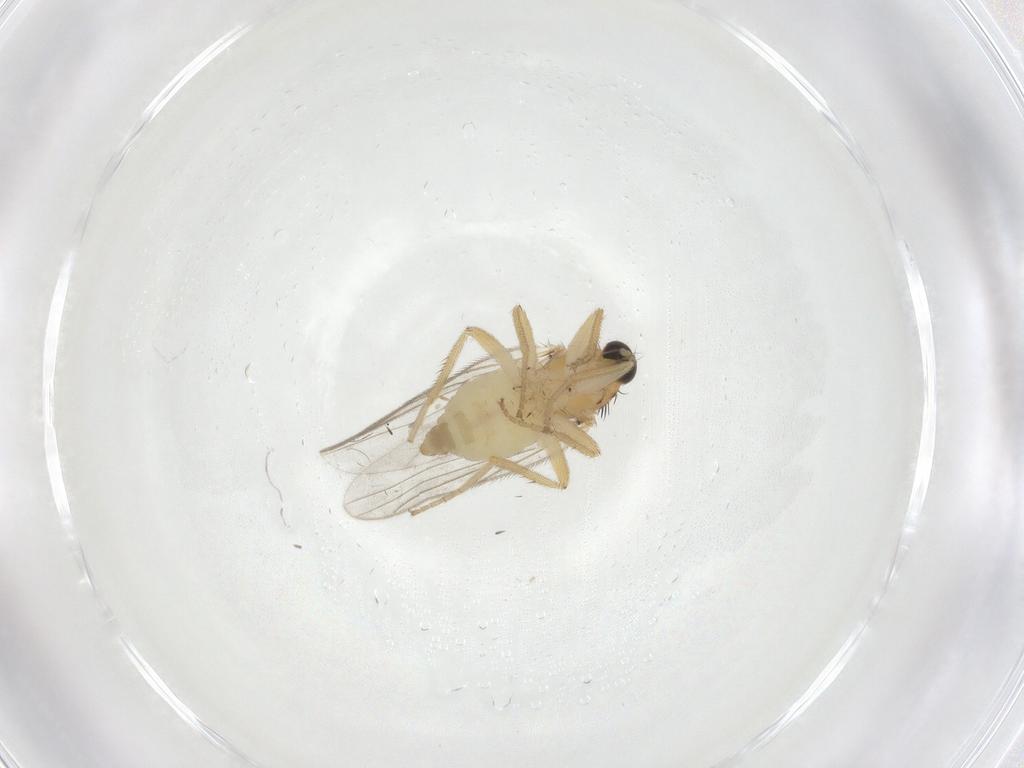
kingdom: Animalia
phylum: Arthropoda
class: Insecta
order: Diptera
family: Hybotidae
